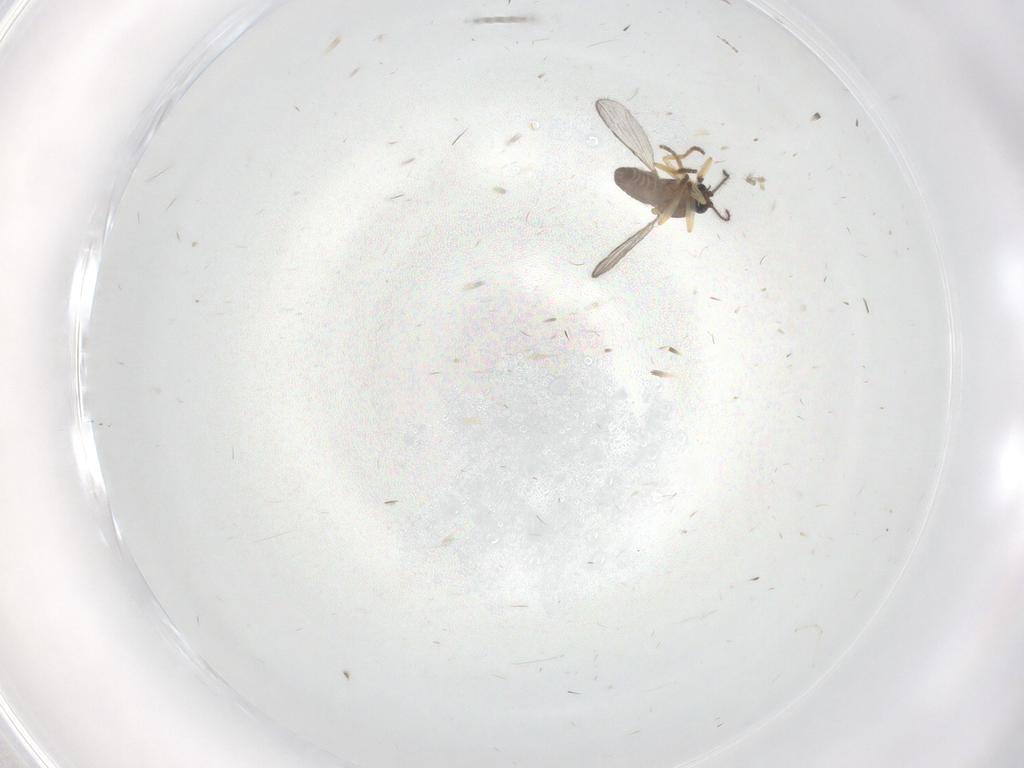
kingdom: Animalia
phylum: Arthropoda
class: Insecta
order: Diptera
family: Ceratopogonidae
